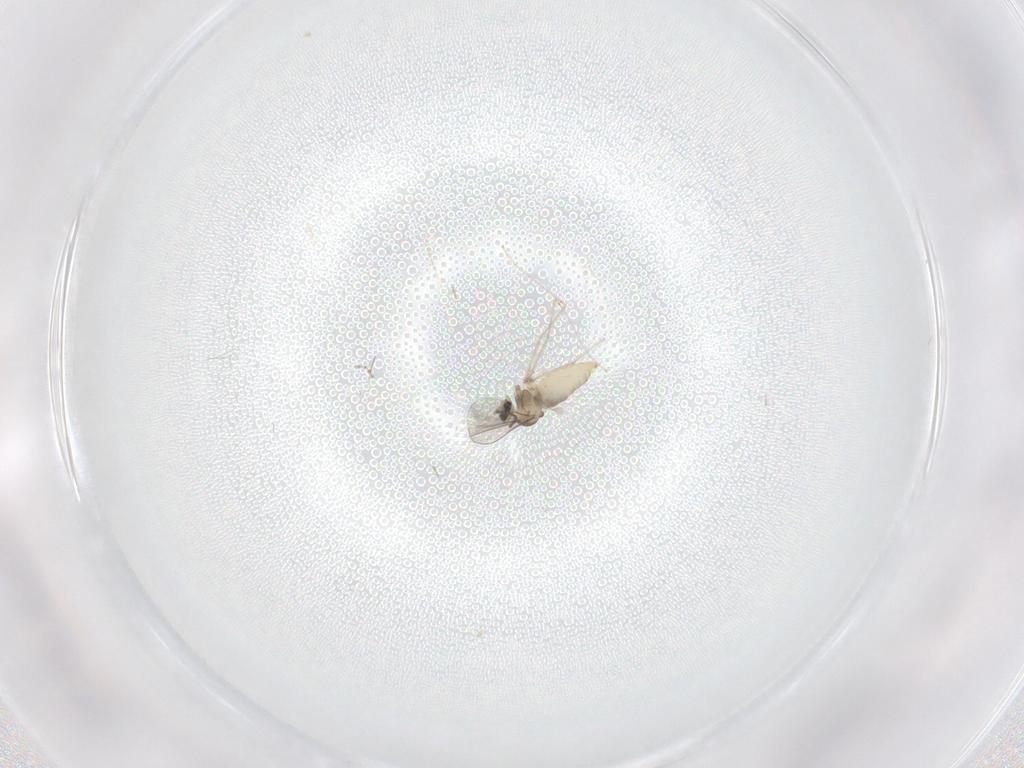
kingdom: Animalia
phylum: Arthropoda
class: Insecta
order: Diptera
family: Cecidomyiidae
